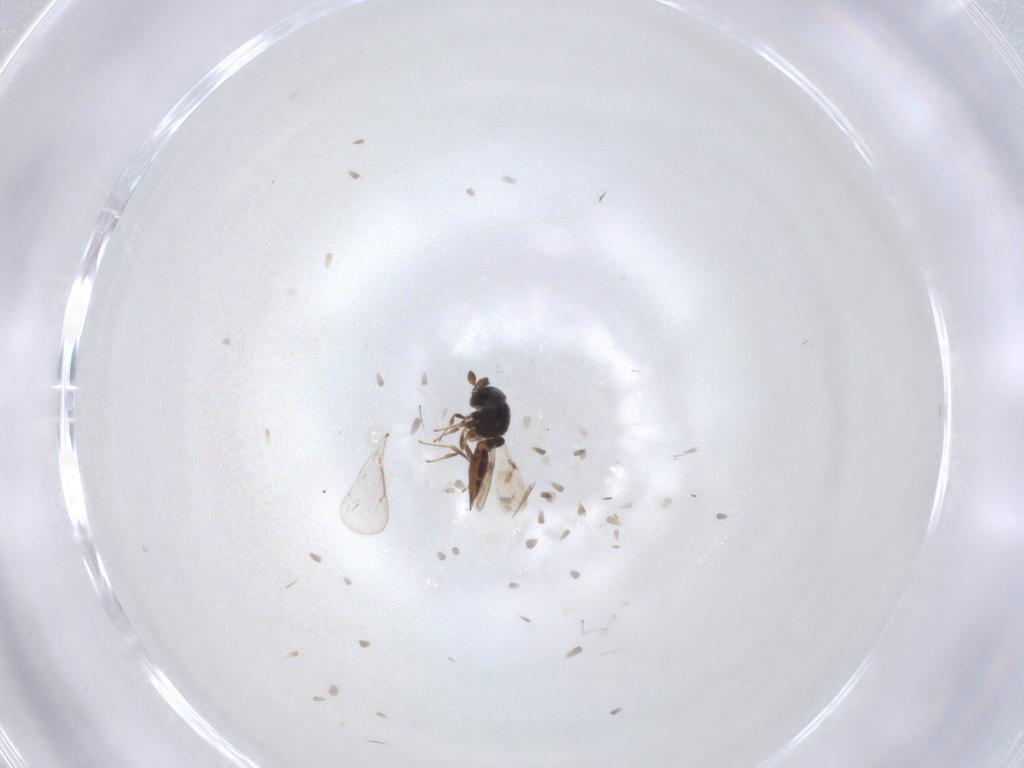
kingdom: Animalia
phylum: Arthropoda
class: Insecta
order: Hymenoptera
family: Scelionidae
